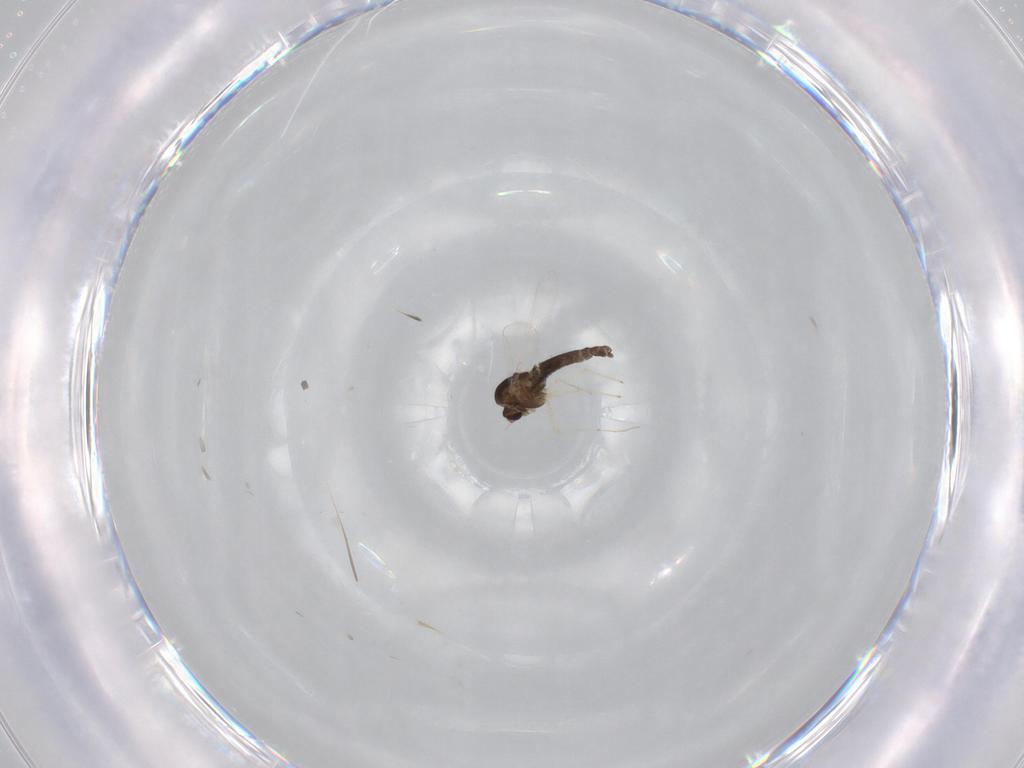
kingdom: Animalia
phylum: Arthropoda
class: Insecta
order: Diptera
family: Chironomidae
